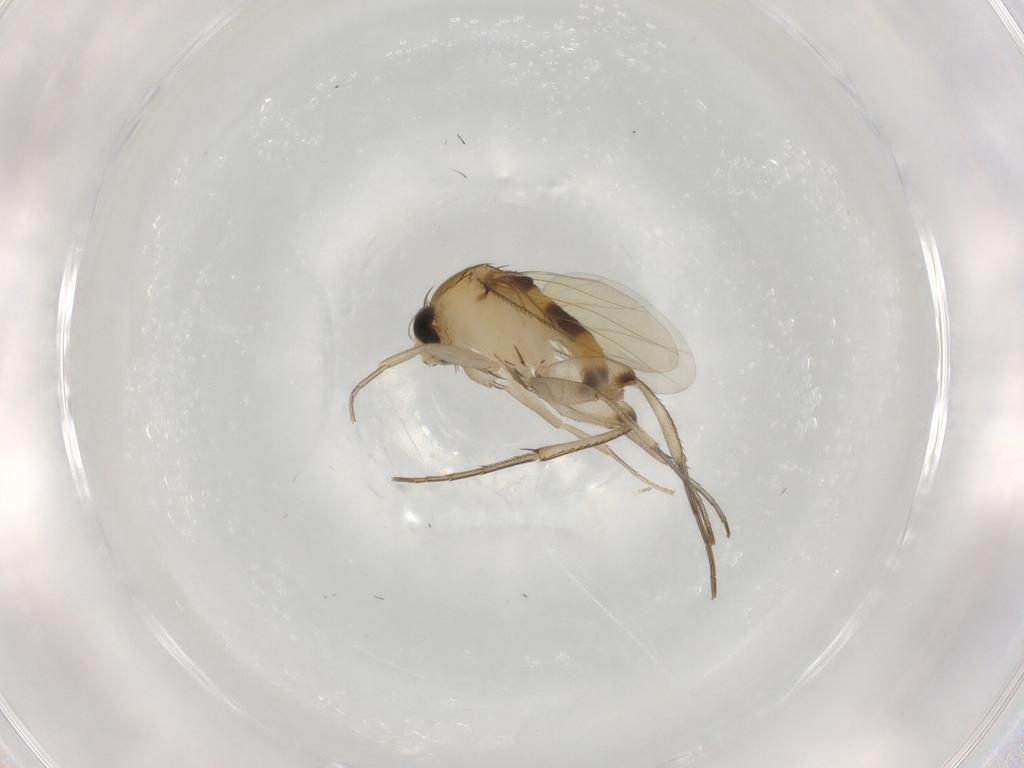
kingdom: Animalia
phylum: Arthropoda
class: Insecta
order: Diptera
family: Phoridae
